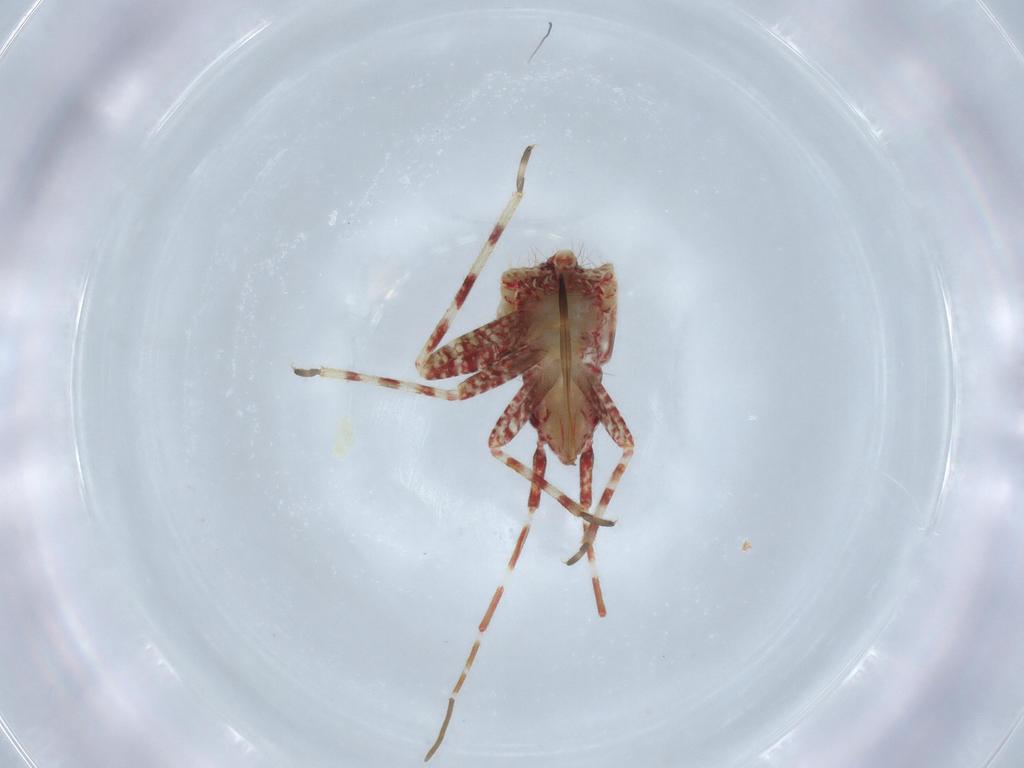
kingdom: Animalia
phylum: Arthropoda
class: Insecta
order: Hemiptera
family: Miridae
